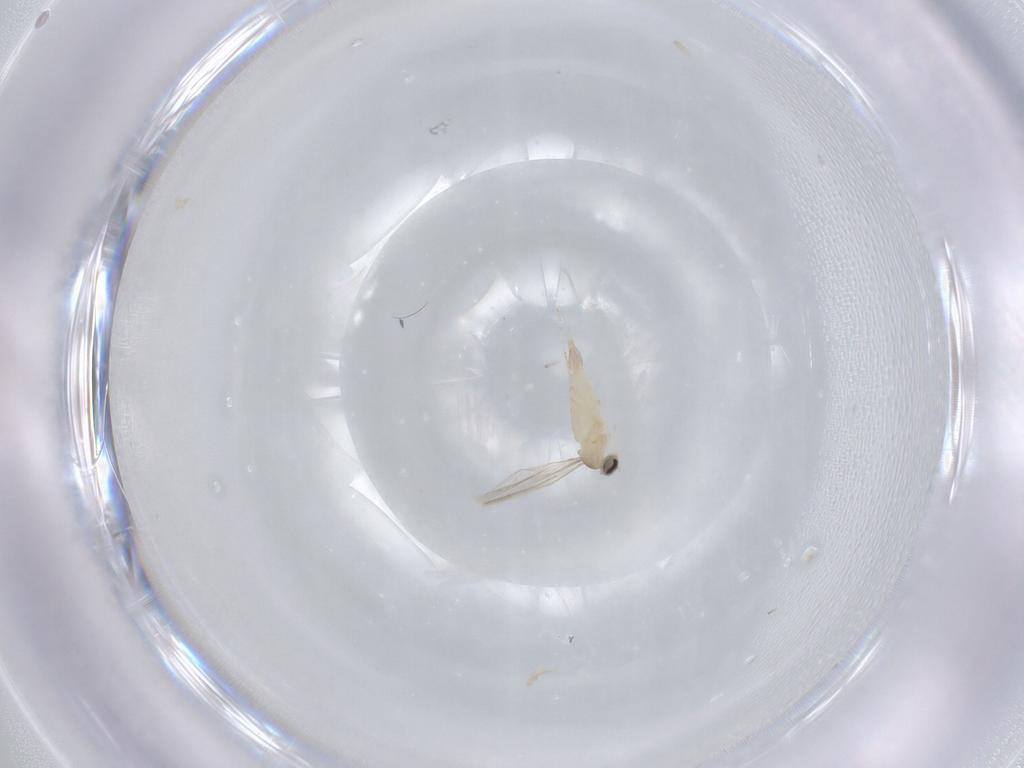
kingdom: Animalia
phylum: Arthropoda
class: Insecta
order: Diptera
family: Cecidomyiidae
